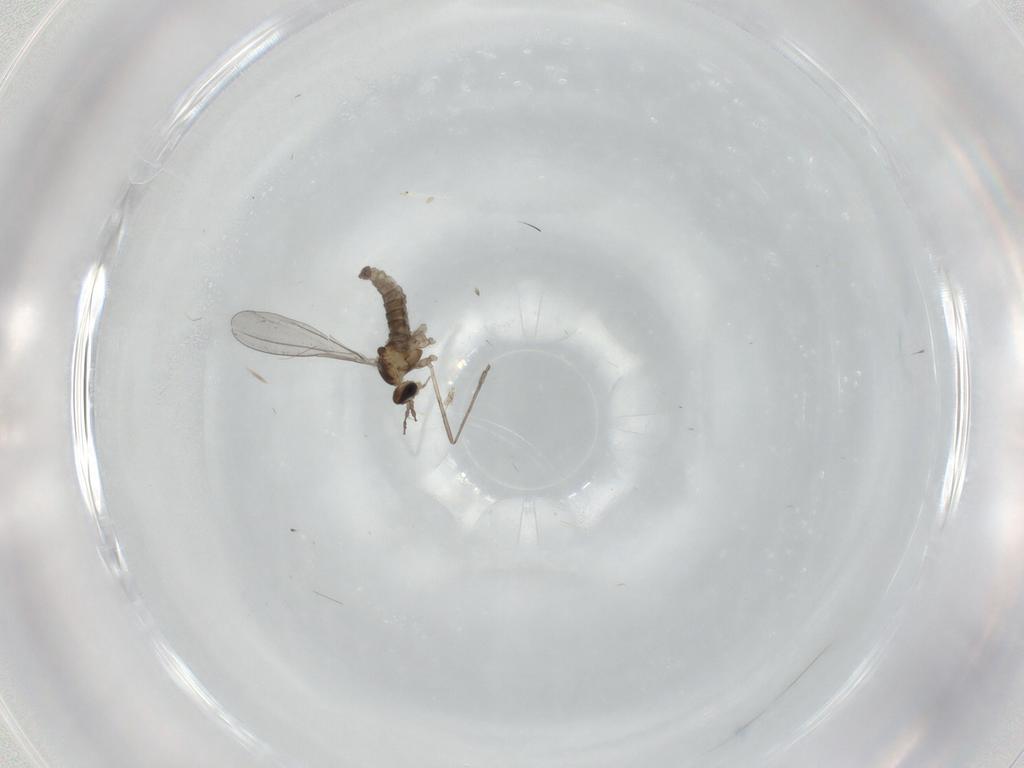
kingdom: Animalia
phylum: Arthropoda
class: Insecta
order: Diptera
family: Cecidomyiidae
